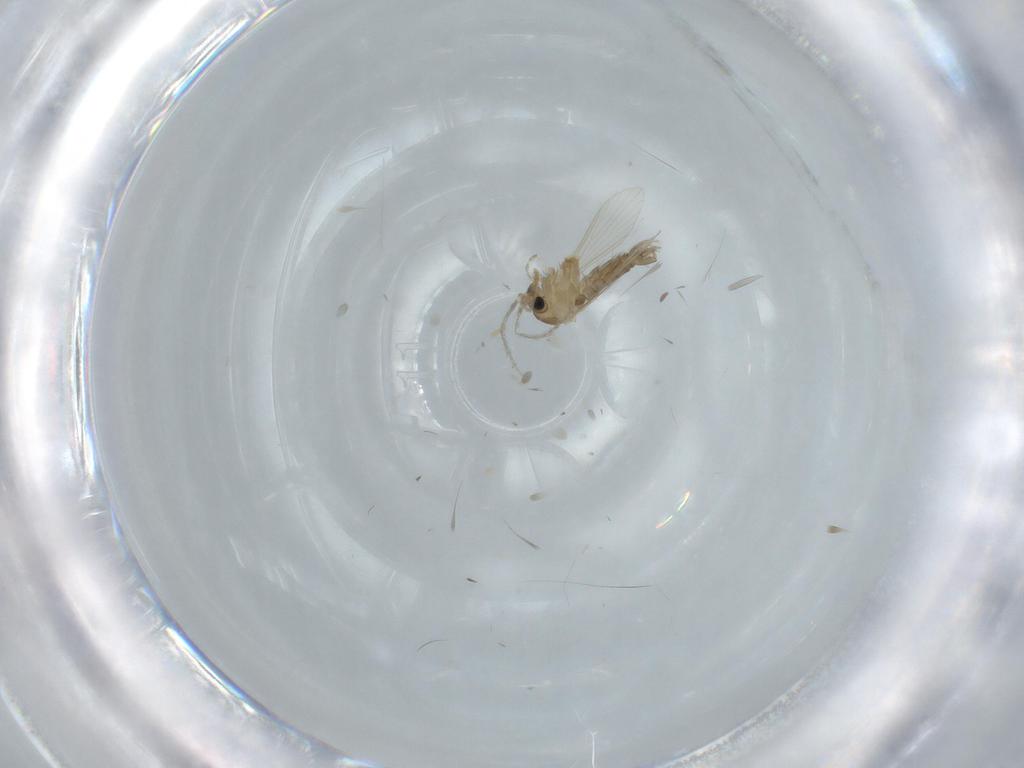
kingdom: Animalia
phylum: Arthropoda
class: Insecta
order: Diptera
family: Psychodidae
